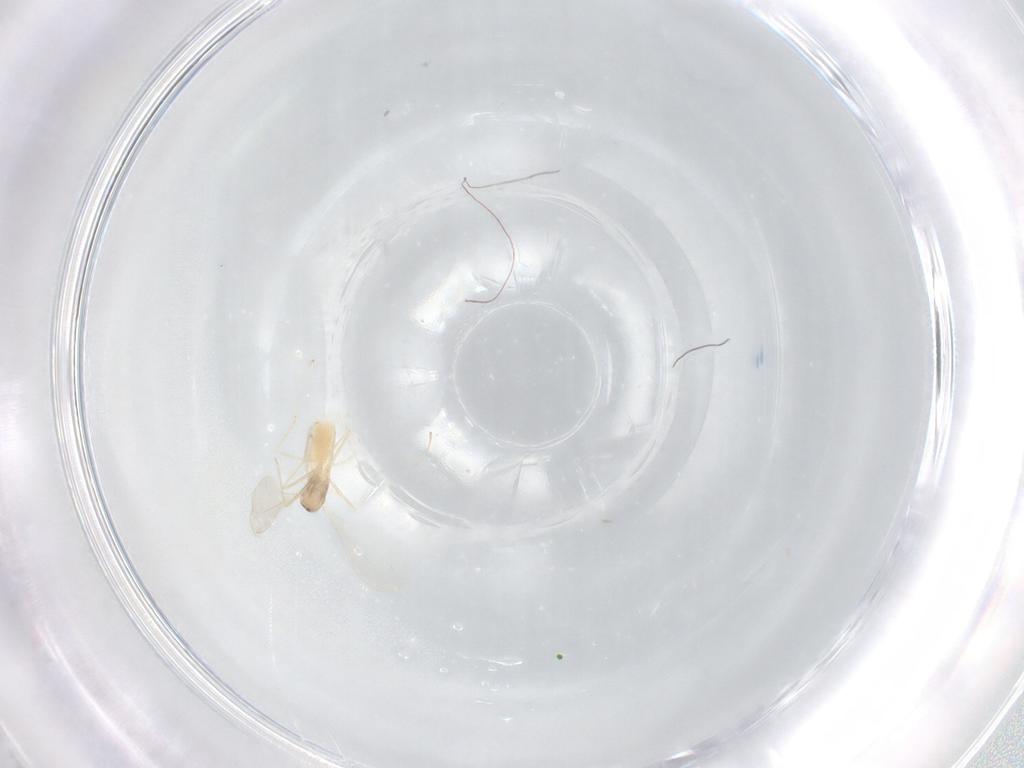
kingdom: Animalia
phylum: Arthropoda
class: Insecta
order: Diptera
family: Cecidomyiidae
